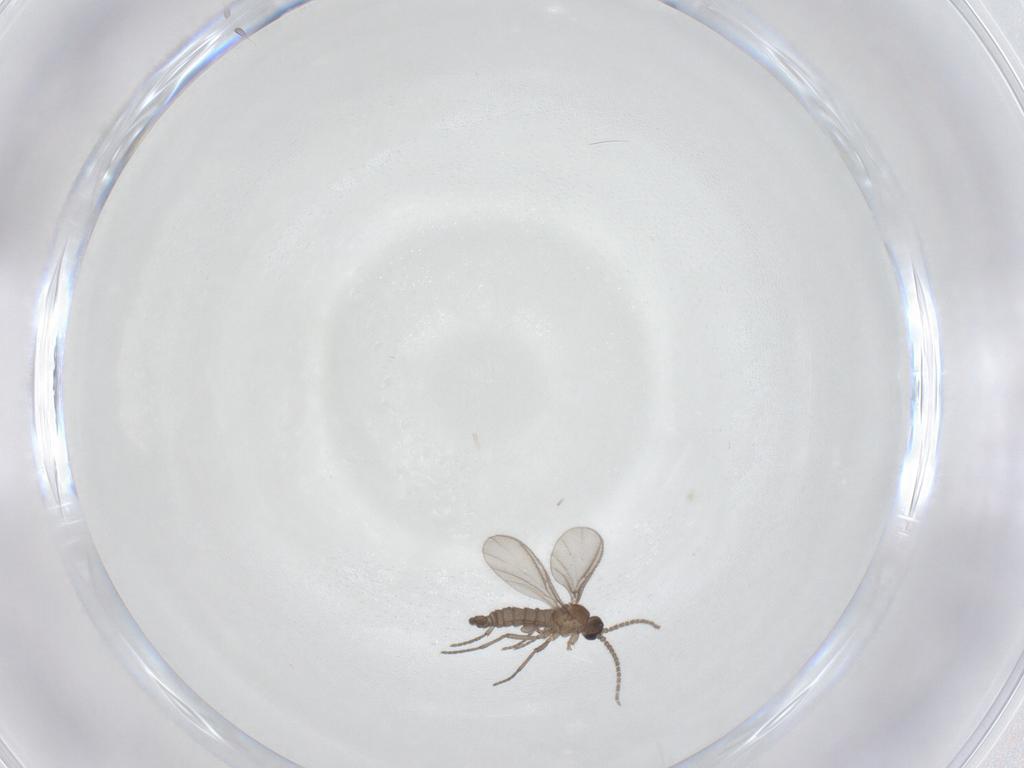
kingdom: Animalia
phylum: Arthropoda
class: Insecta
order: Diptera
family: Sciaridae
